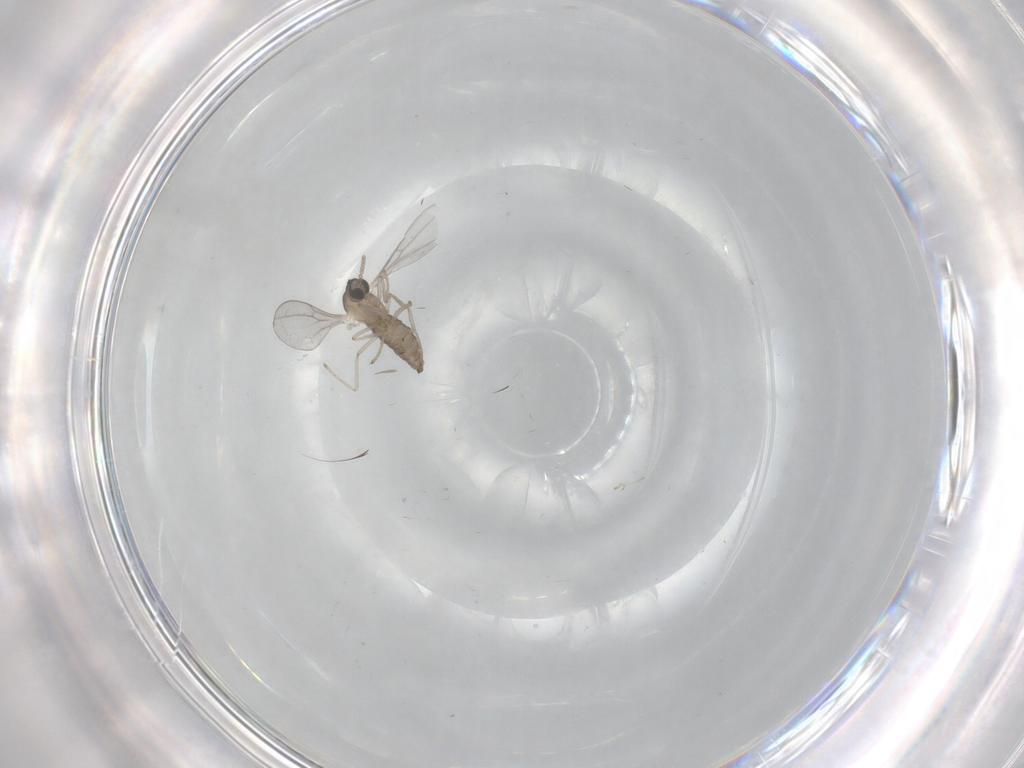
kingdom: Animalia
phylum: Arthropoda
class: Insecta
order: Diptera
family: Cecidomyiidae
